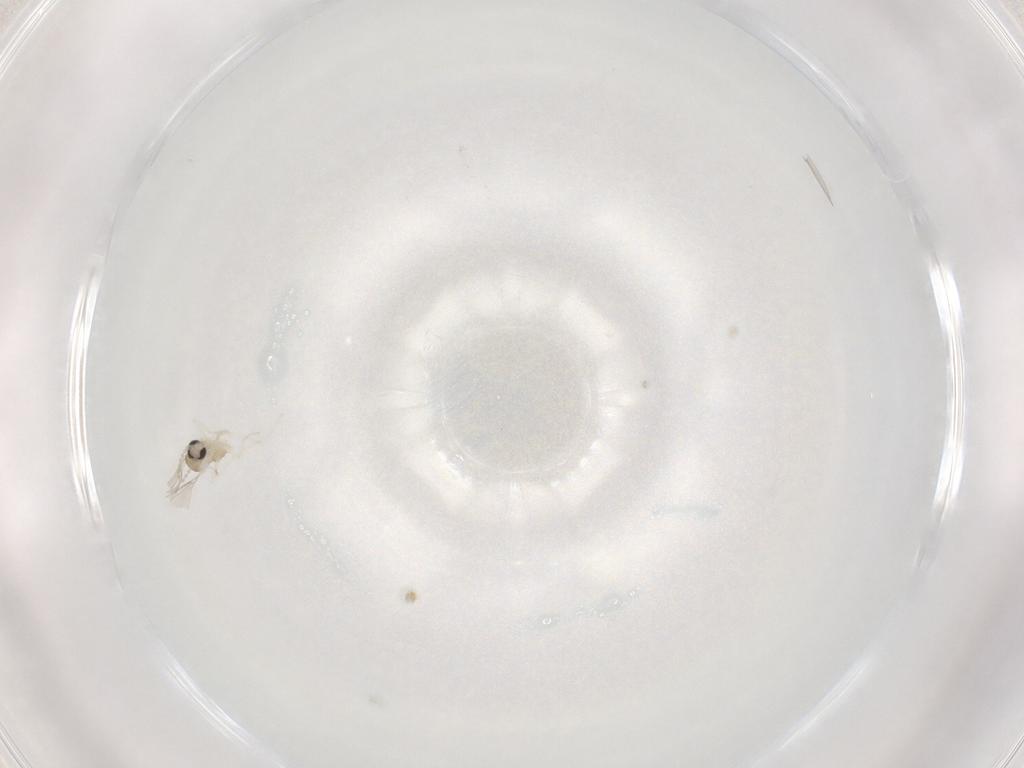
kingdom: Animalia
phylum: Arthropoda
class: Insecta
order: Diptera
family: Cecidomyiidae
